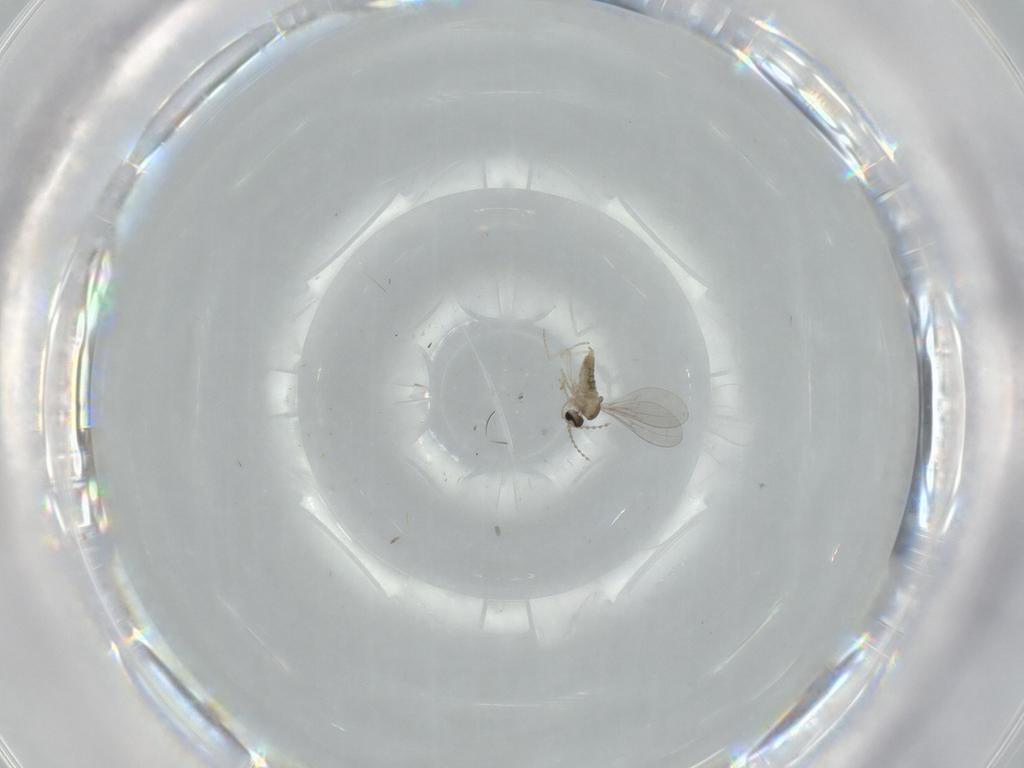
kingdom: Animalia
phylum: Arthropoda
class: Insecta
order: Diptera
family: Cecidomyiidae
